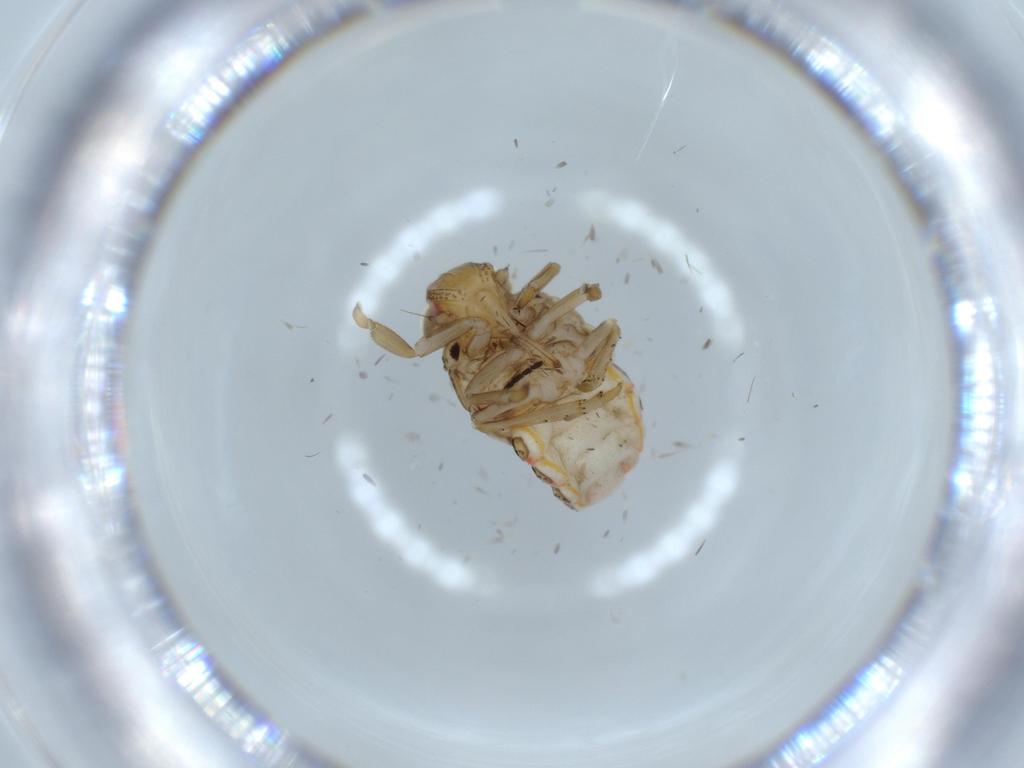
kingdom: Animalia
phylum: Arthropoda
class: Insecta
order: Hemiptera
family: Issidae
